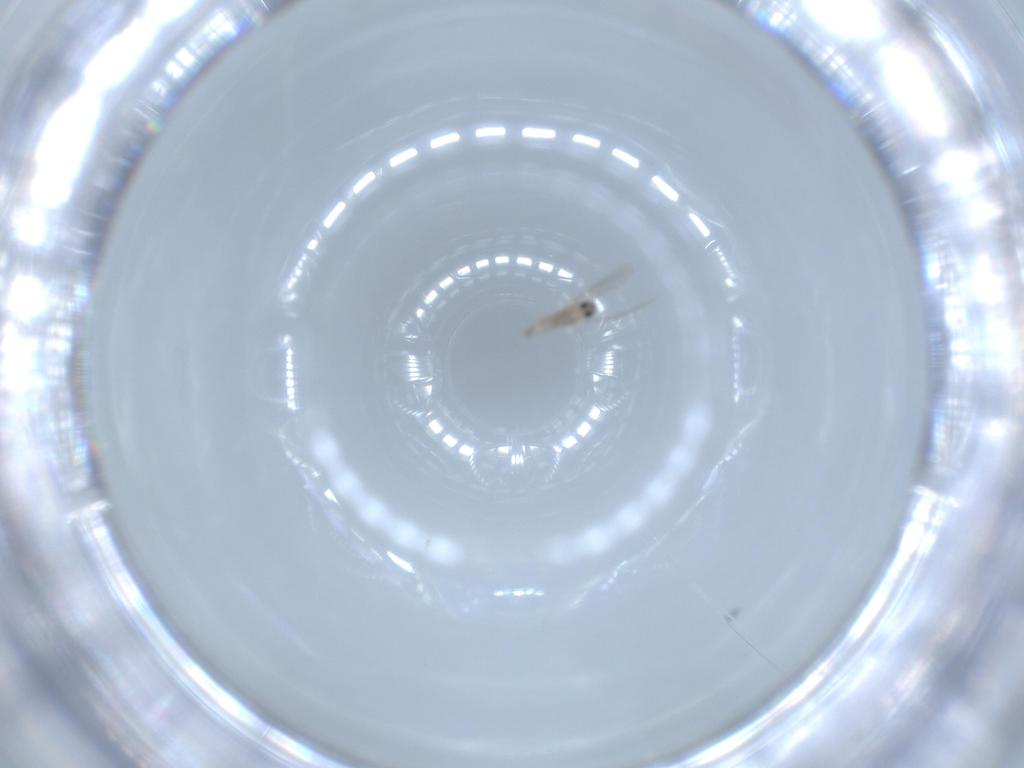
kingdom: Animalia
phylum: Arthropoda
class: Insecta
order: Diptera
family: Cecidomyiidae
